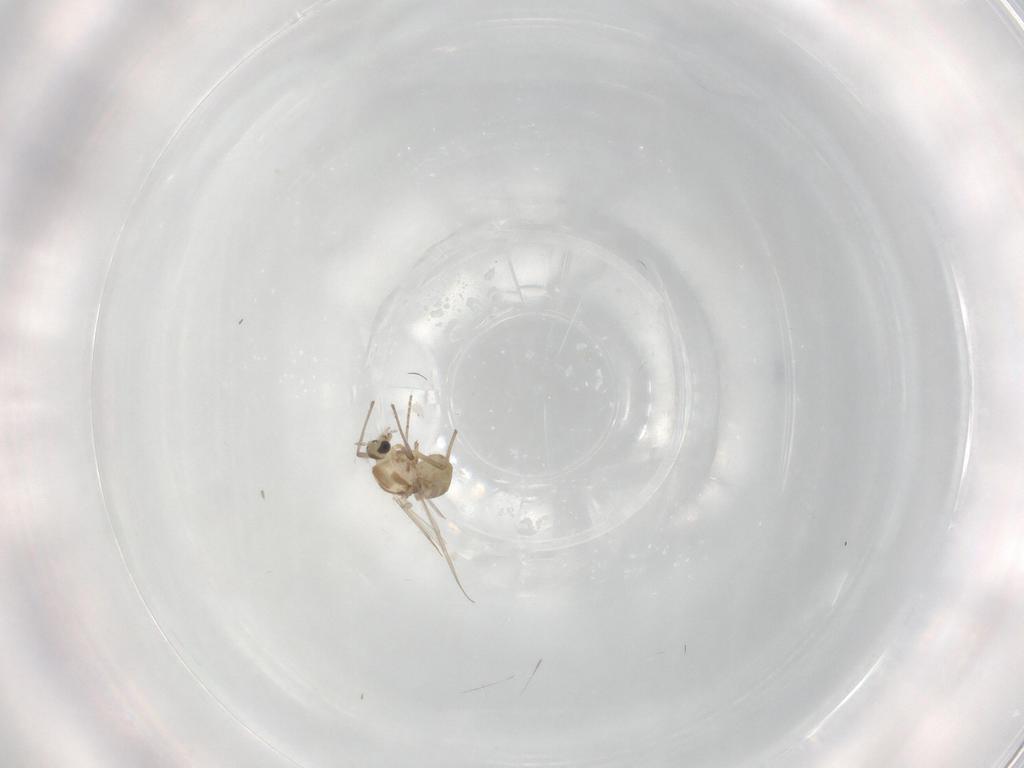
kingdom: Animalia
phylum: Arthropoda
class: Insecta
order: Diptera
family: Chironomidae
